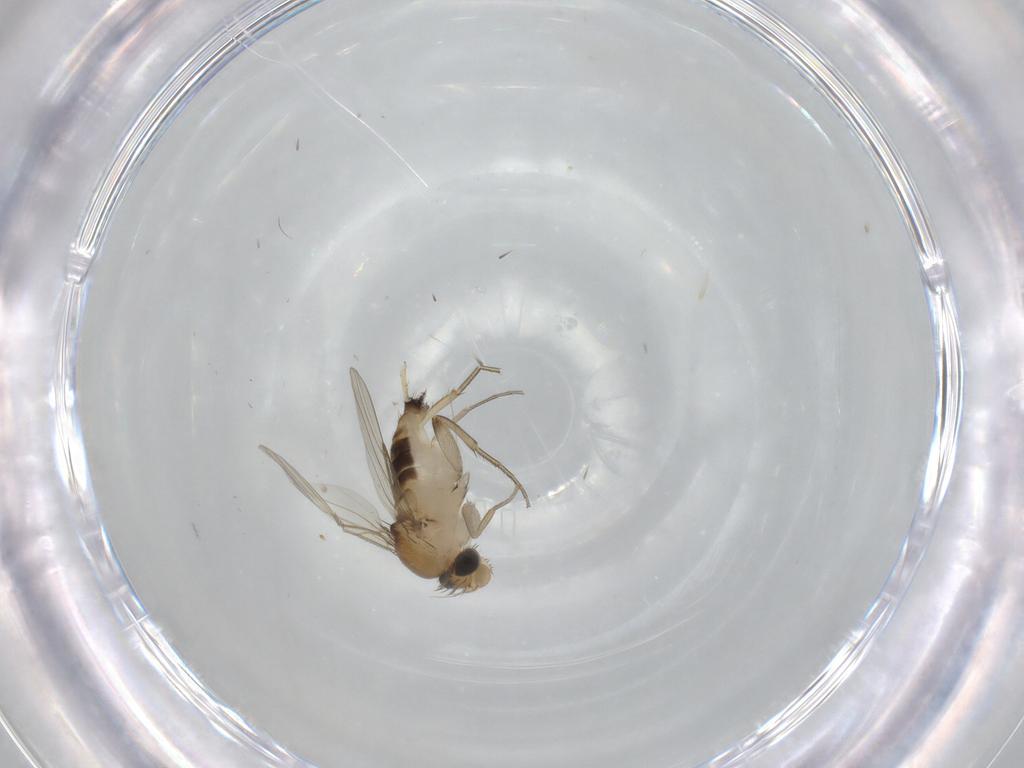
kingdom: Animalia
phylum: Arthropoda
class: Insecta
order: Diptera
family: Phoridae
